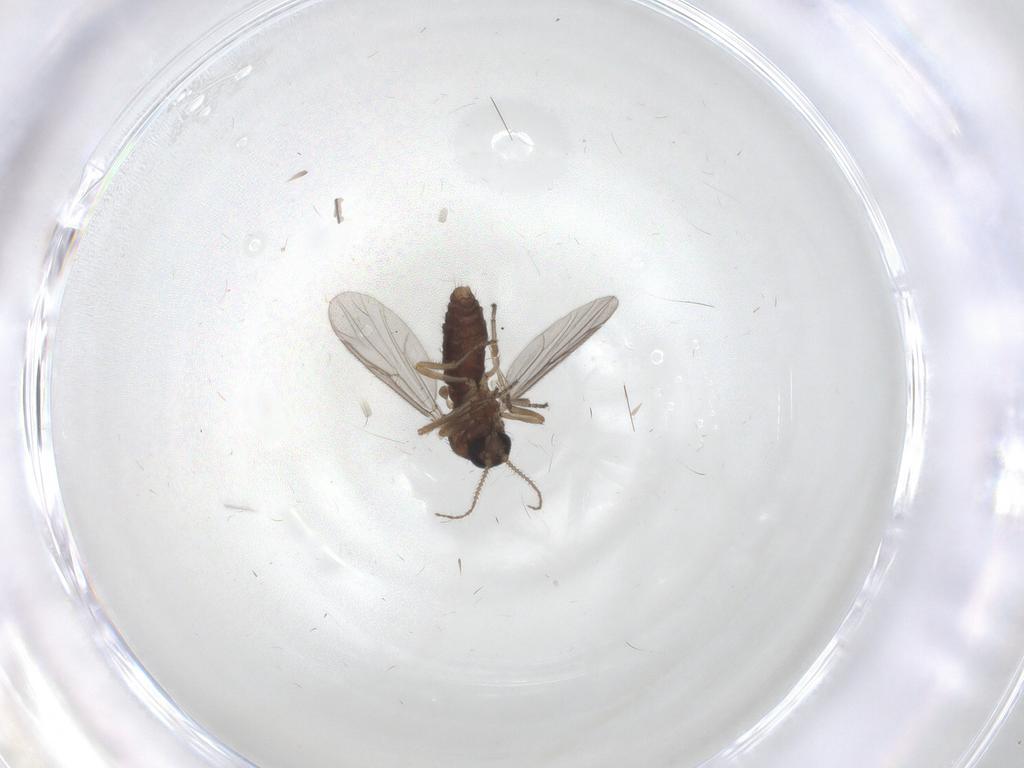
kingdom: Animalia
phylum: Arthropoda
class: Insecta
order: Diptera
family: Ceratopogonidae
